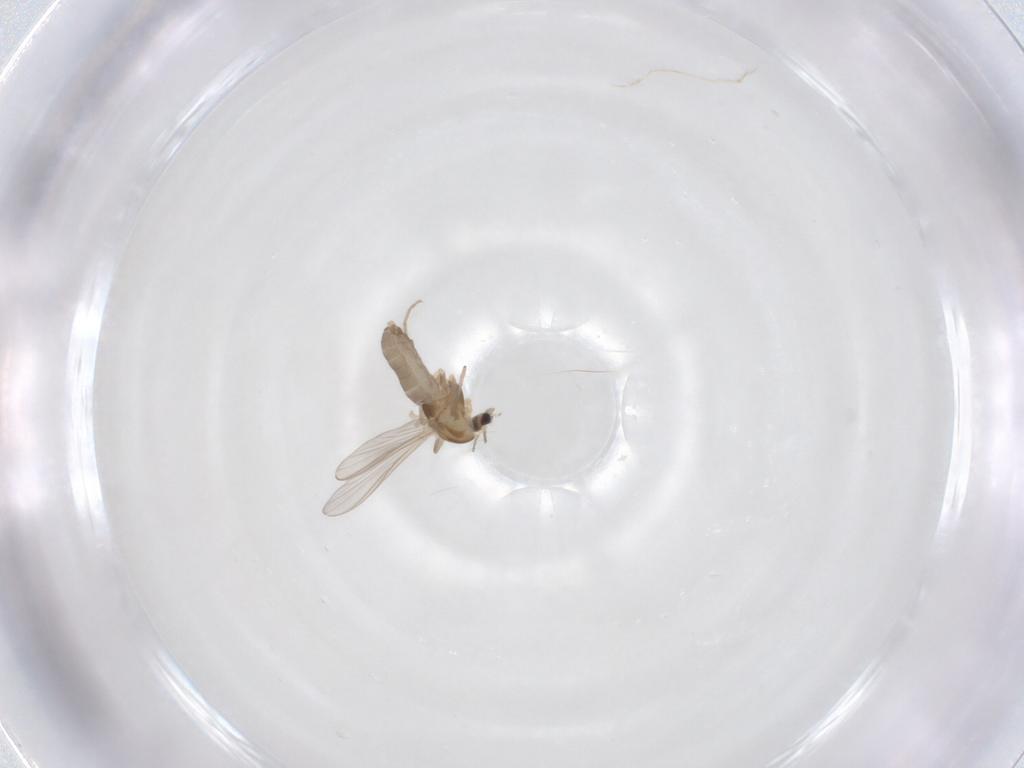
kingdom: Animalia
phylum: Arthropoda
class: Insecta
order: Diptera
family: Chironomidae
